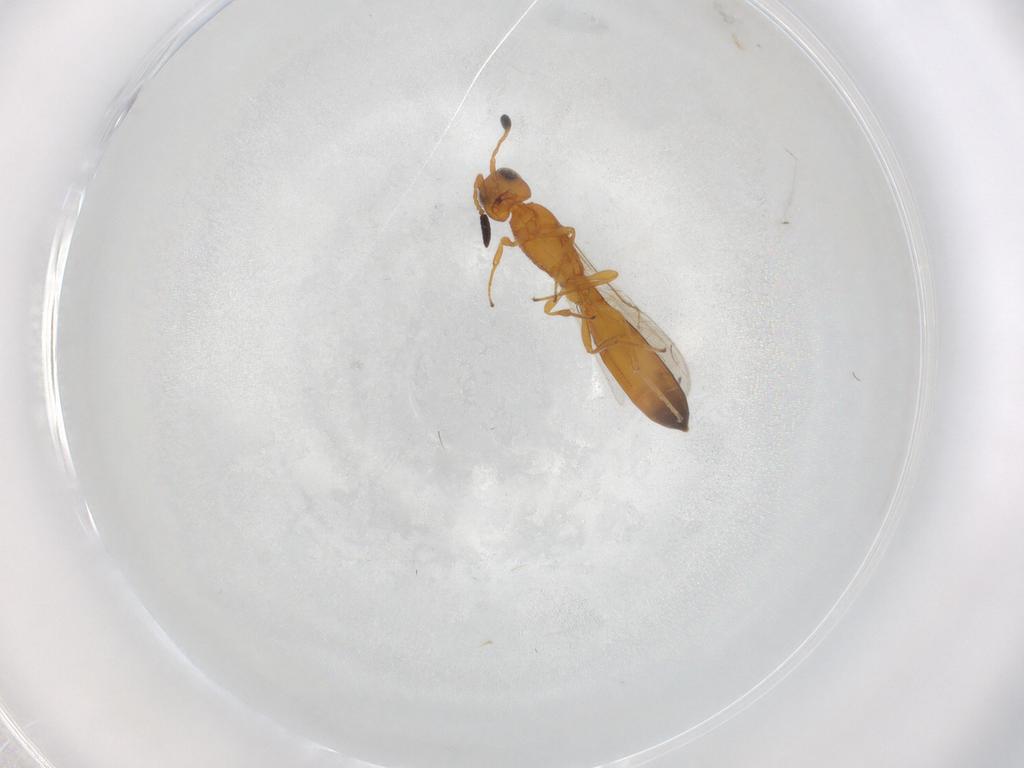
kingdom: Animalia
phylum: Arthropoda
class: Insecta
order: Hymenoptera
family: Scelionidae
